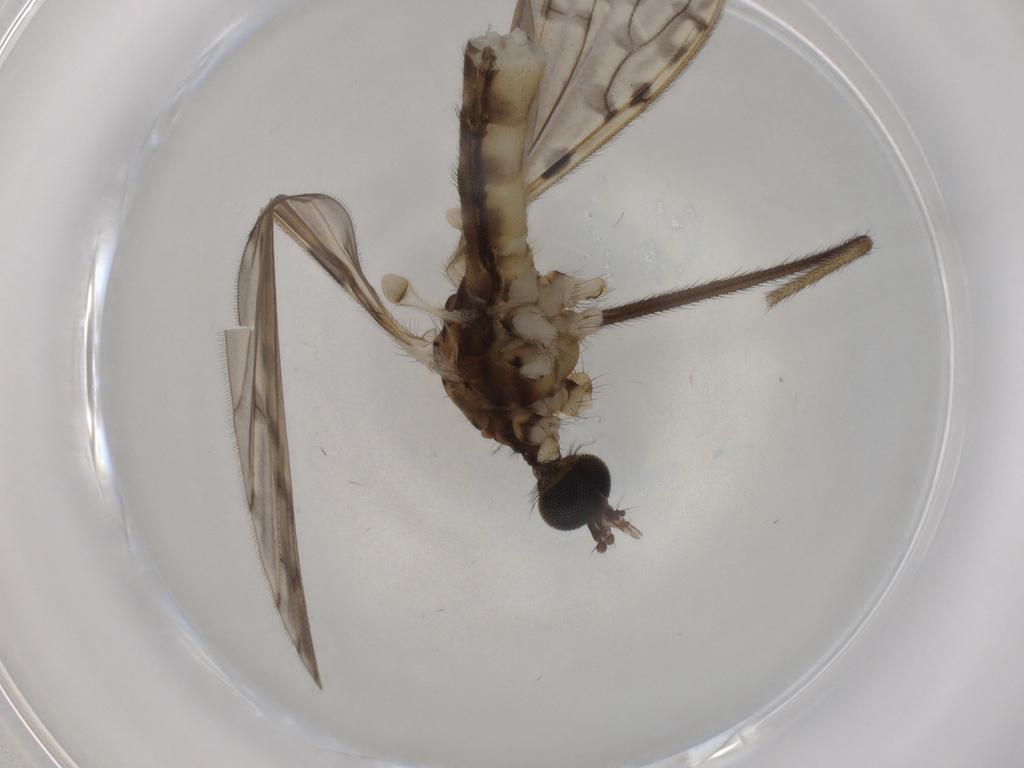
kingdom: Animalia
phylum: Arthropoda
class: Insecta
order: Diptera
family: Ceratopogonidae
